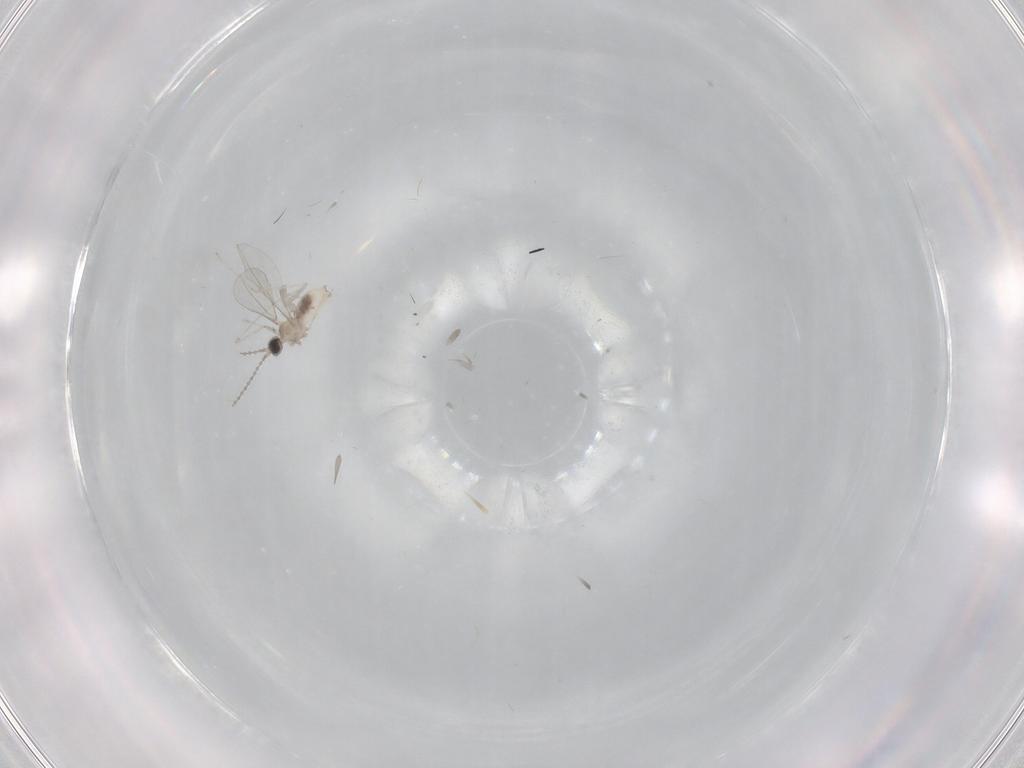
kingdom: Animalia
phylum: Arthropoda
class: Insecta
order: Diptera
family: Cecidomyiidae
